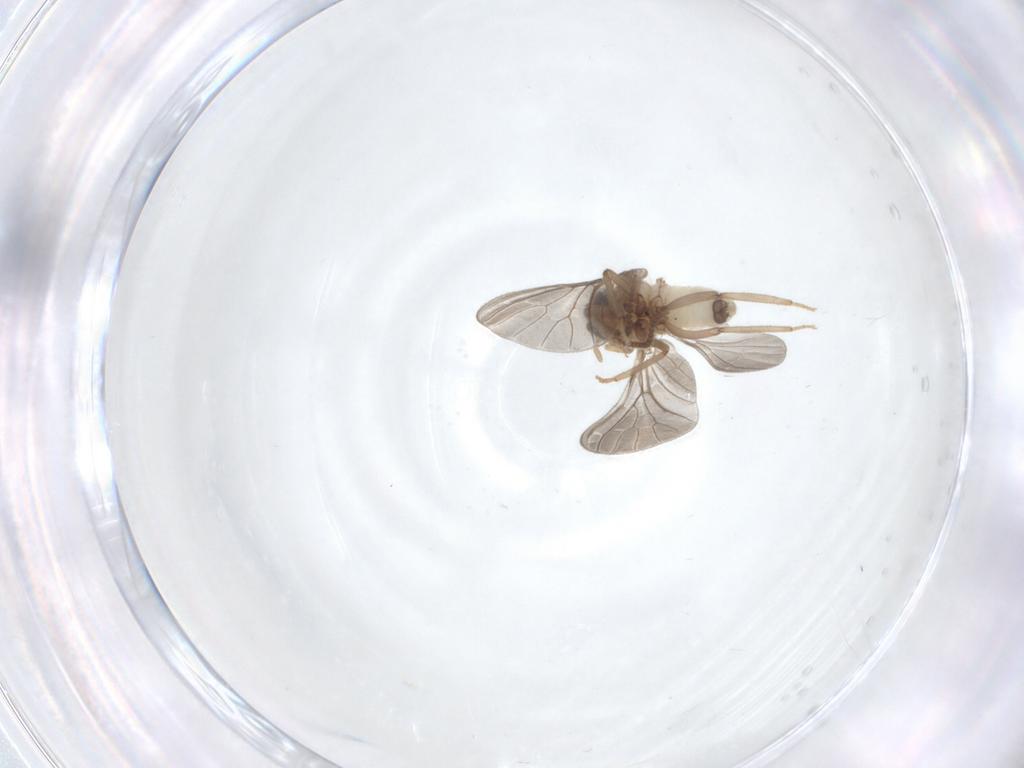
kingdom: Animalia
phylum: Arthropoda
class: Insecta
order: Neuroptera
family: Coniopterygidae
